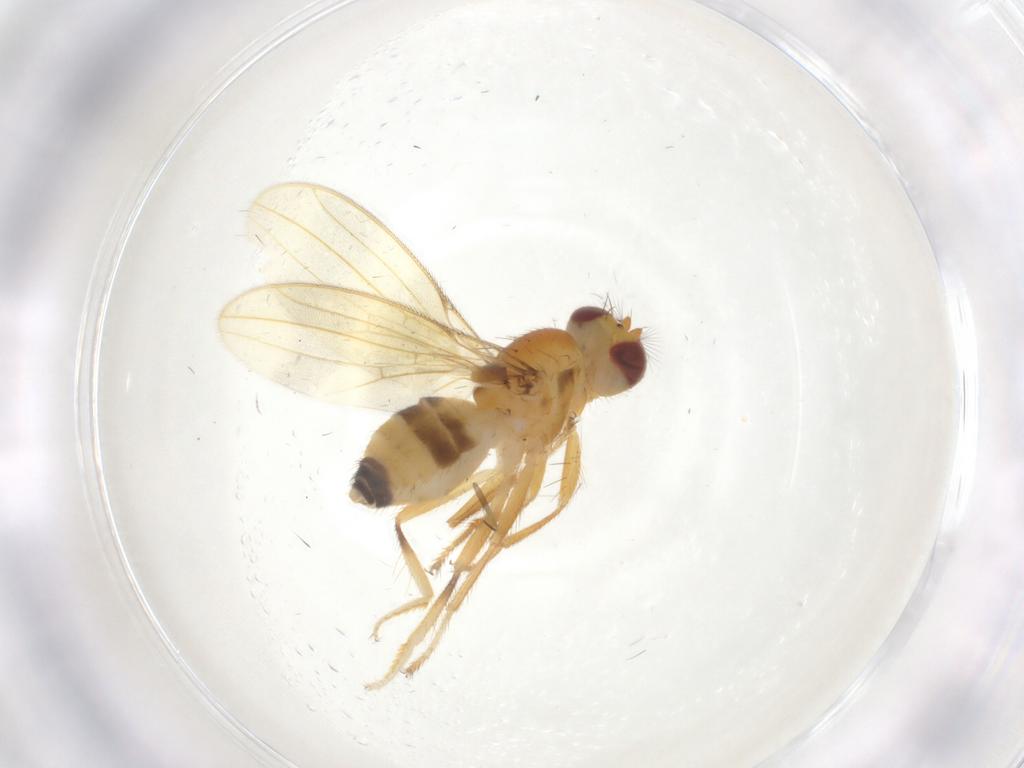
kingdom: Animalia
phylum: Arthropoda
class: Insecta
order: Diptera
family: Periscelididae
